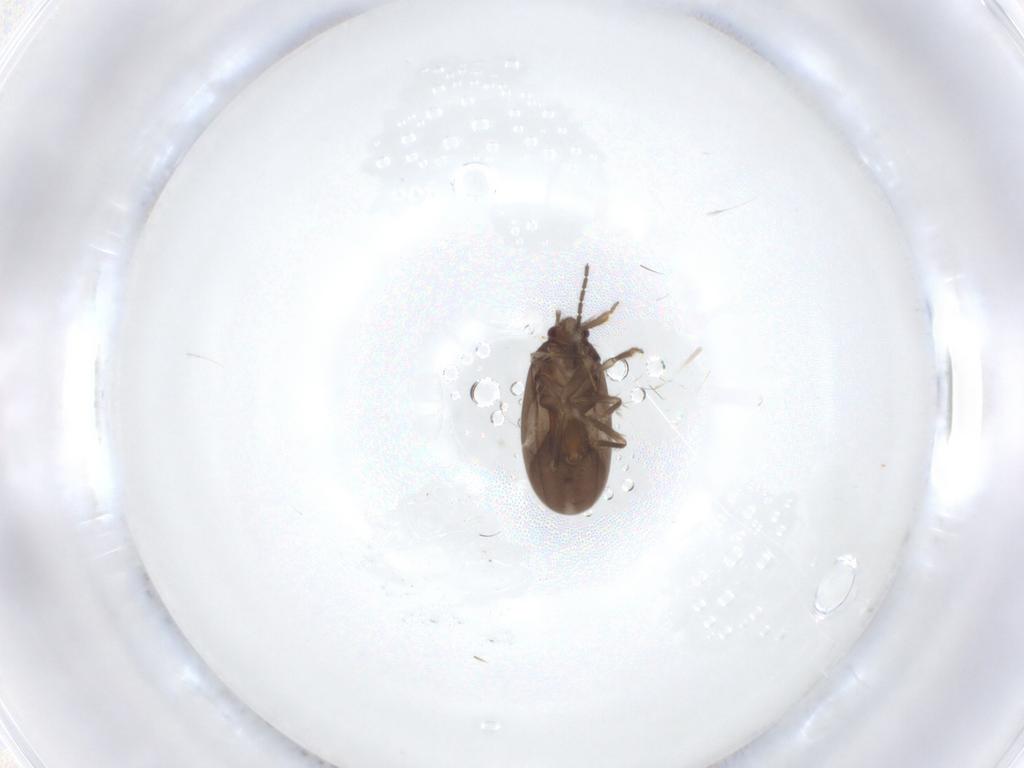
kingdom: Animalia
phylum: Arthropoda
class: Insecta
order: Hemiptera
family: Ceratocombidae
